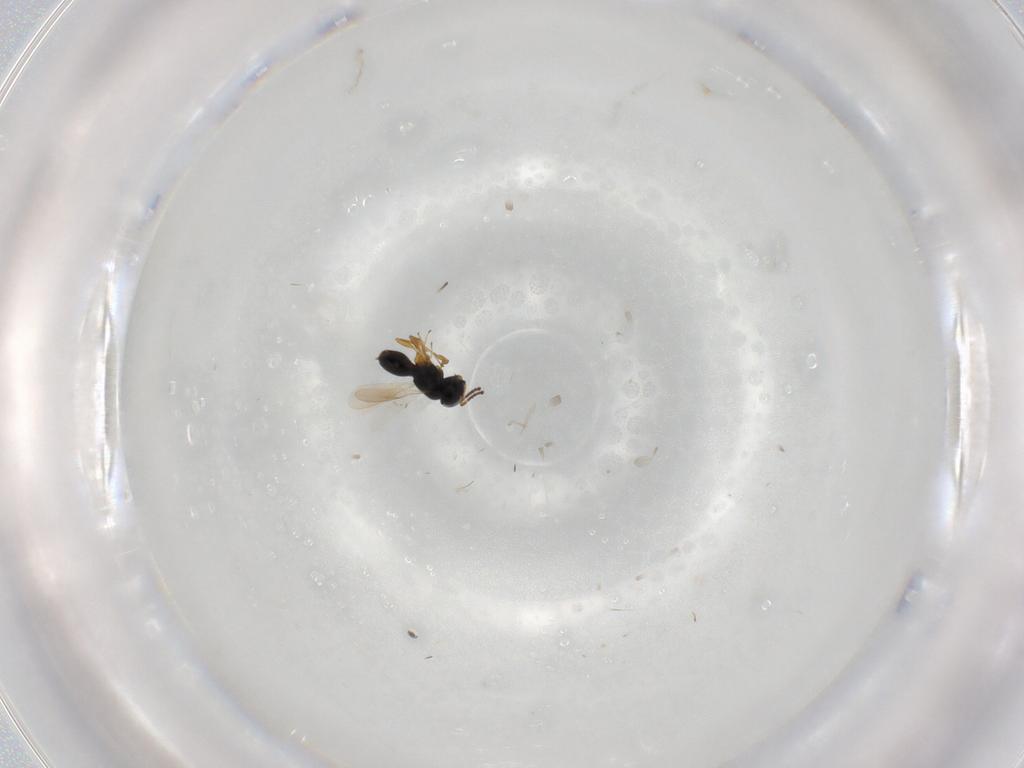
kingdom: Animalia
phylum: Arthropoda
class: Insecta
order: Hymenoptera
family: Scelionidae
